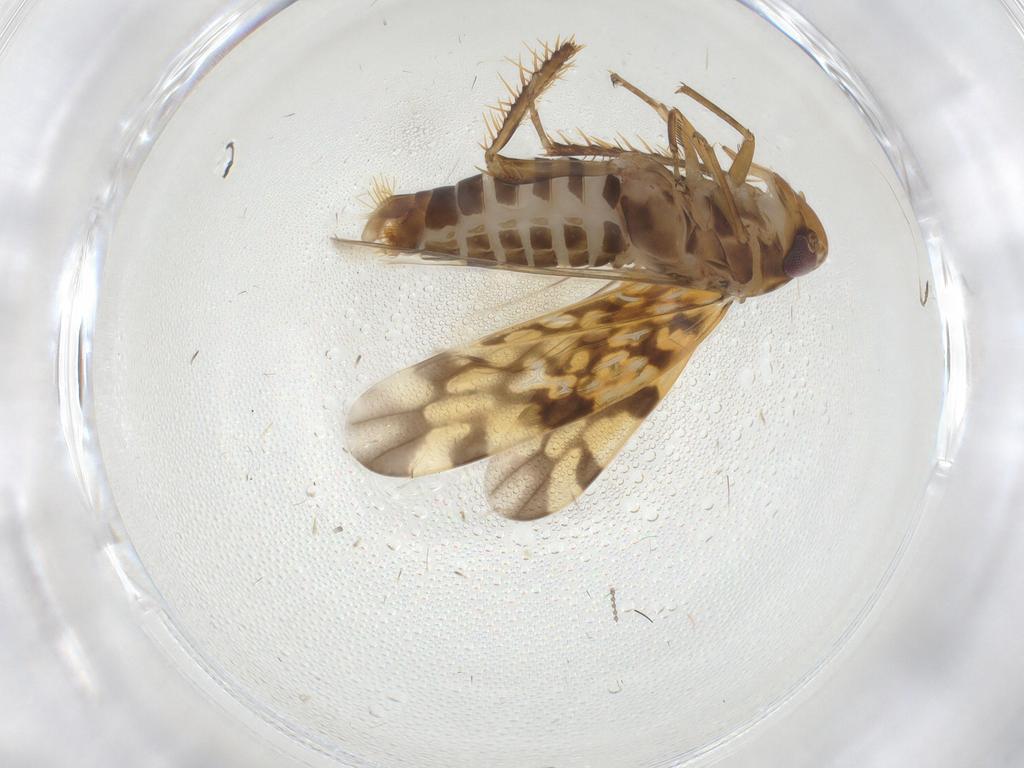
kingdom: Animalia
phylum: Arthropoda
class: Insecta
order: Hemiptera
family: Cicadellidae
